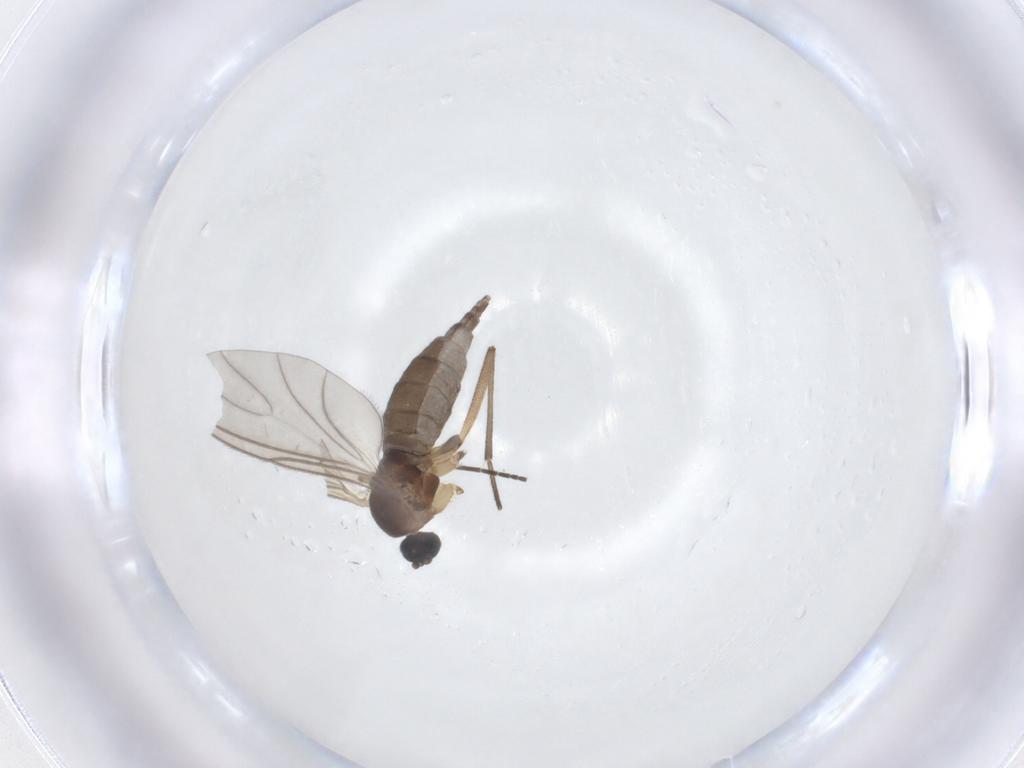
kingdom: Animalia
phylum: Arthropoda
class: Insecta
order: Diptera
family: Sciaridae
